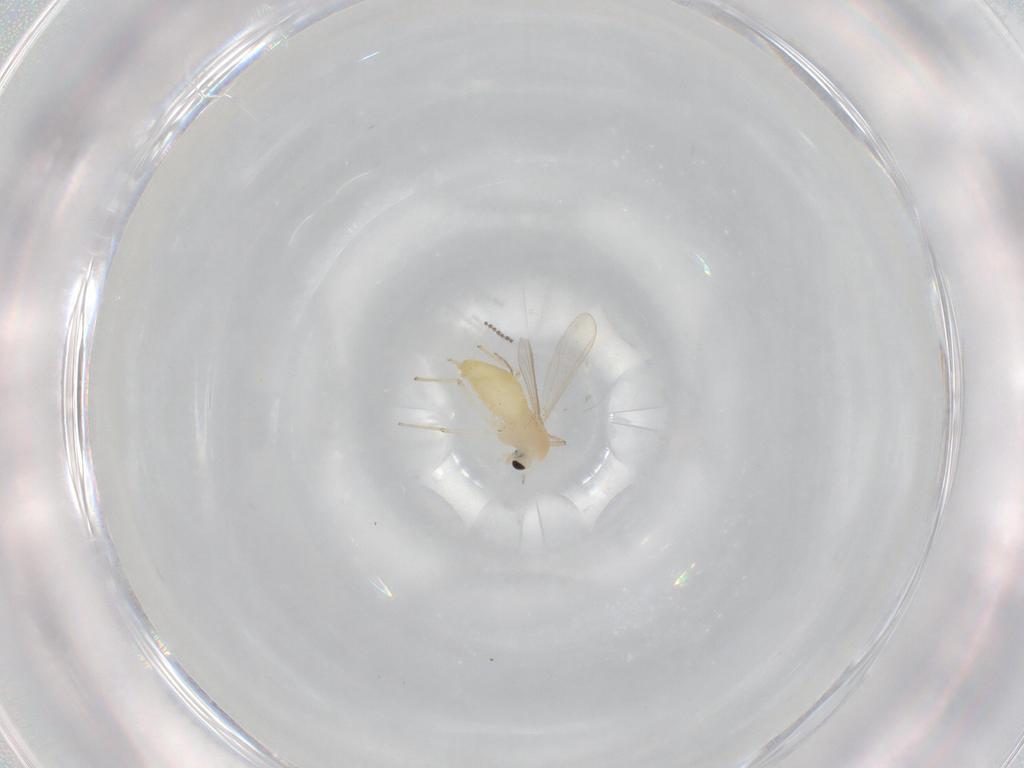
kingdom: Animalia
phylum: Arthropoda
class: Insecta
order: Diptera
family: Chironomidae
